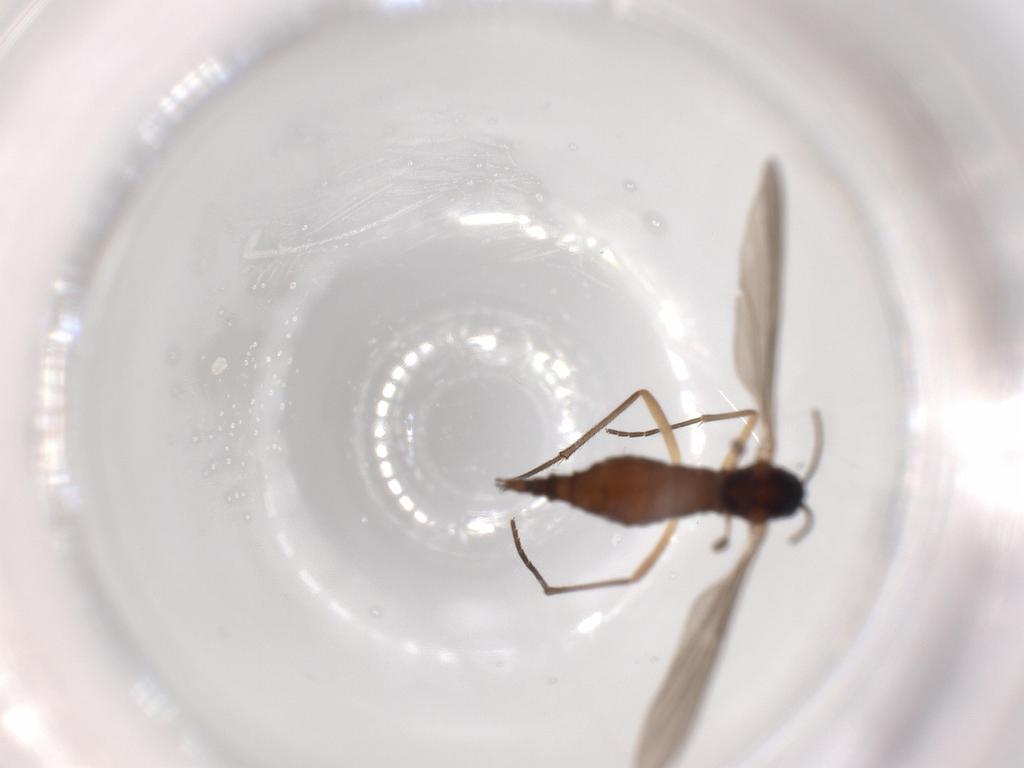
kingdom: Animalia
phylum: Arthropoda
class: Insecta
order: Diptera
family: Sciaridae
